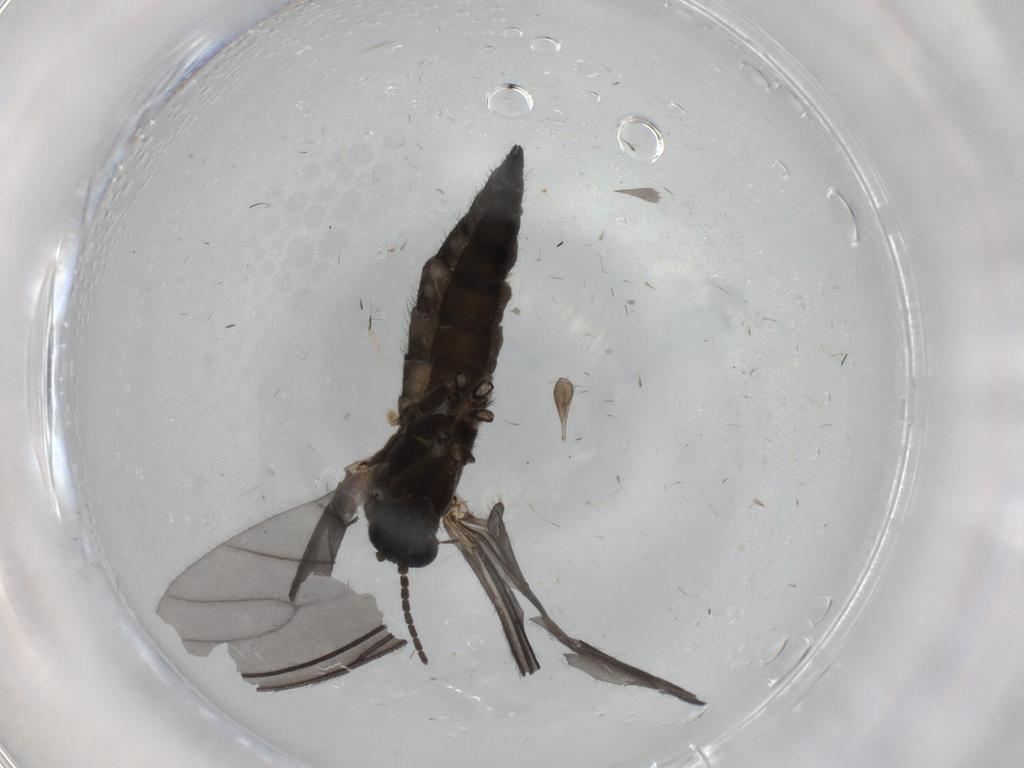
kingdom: Animalia
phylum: Arthropoda
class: Insecta
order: Diptera
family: Sciaridae
